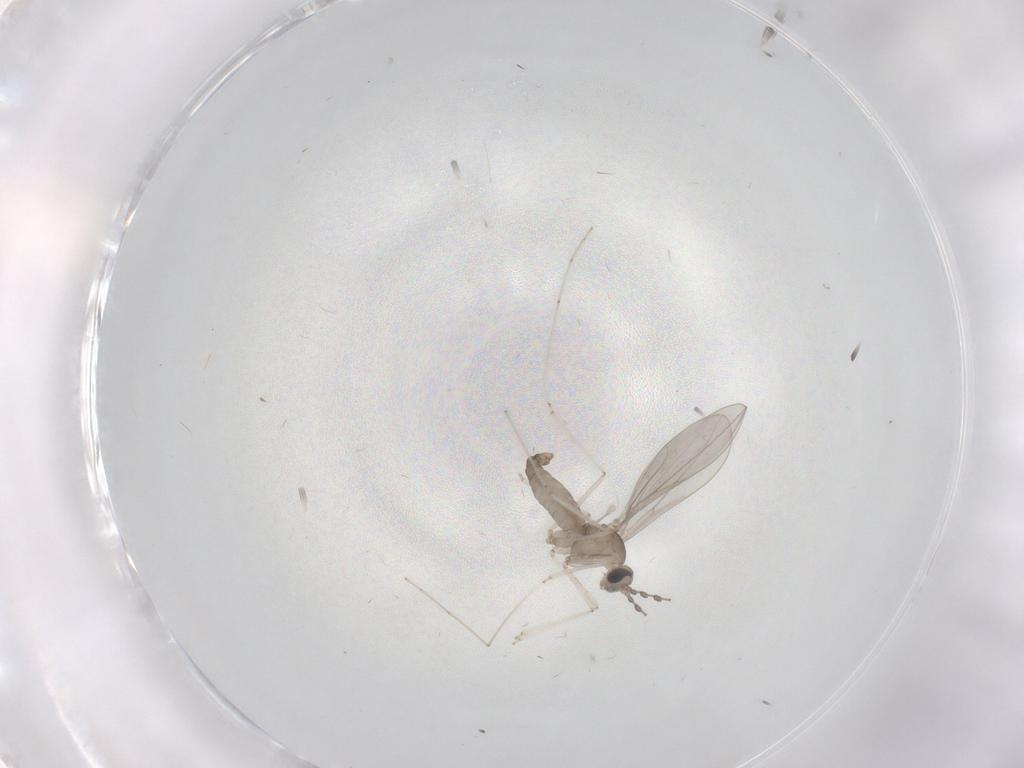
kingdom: Animalia
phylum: Arthropoda
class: Insecta
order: Diptera
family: Cecidomyiidae
